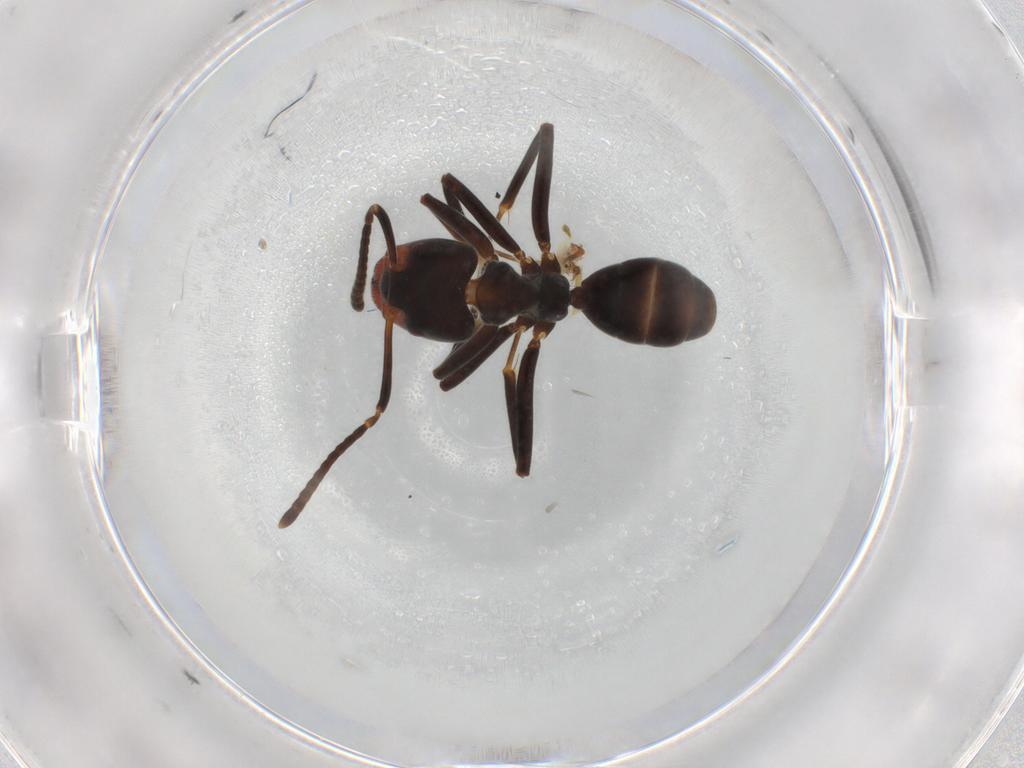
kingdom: Animalia
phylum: Arthropoda
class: Insecta
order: Hymenoptera
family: Formicidae
